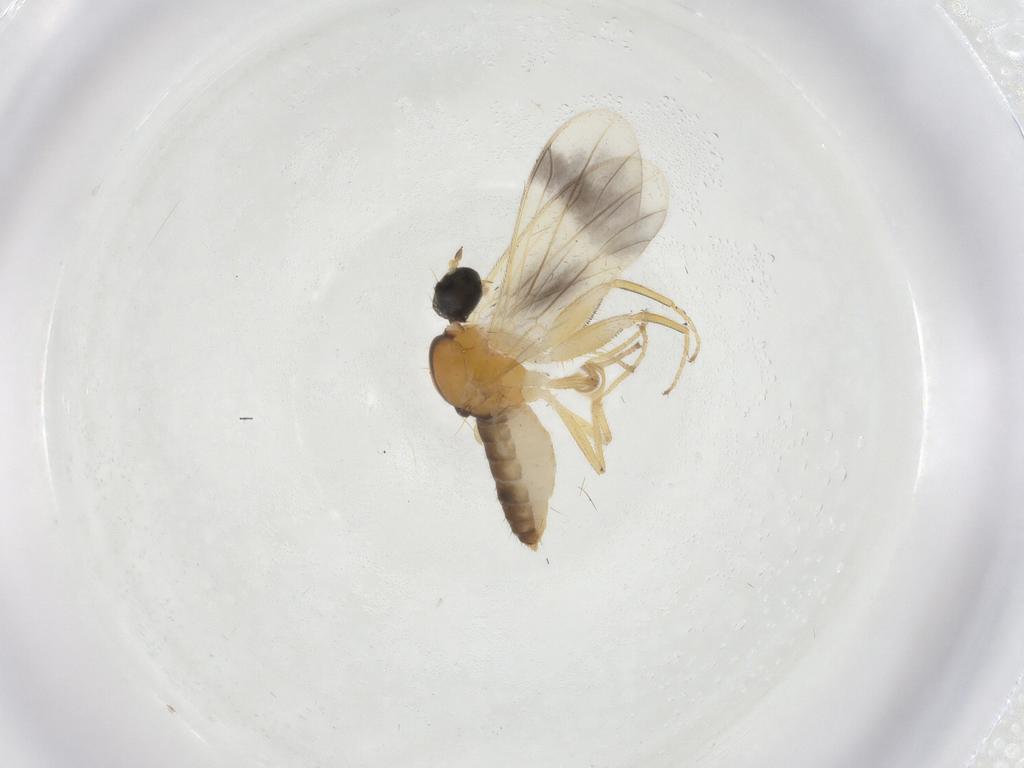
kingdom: Animalia
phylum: Arthropoda
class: Insecta
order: Diptera
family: Empididae
